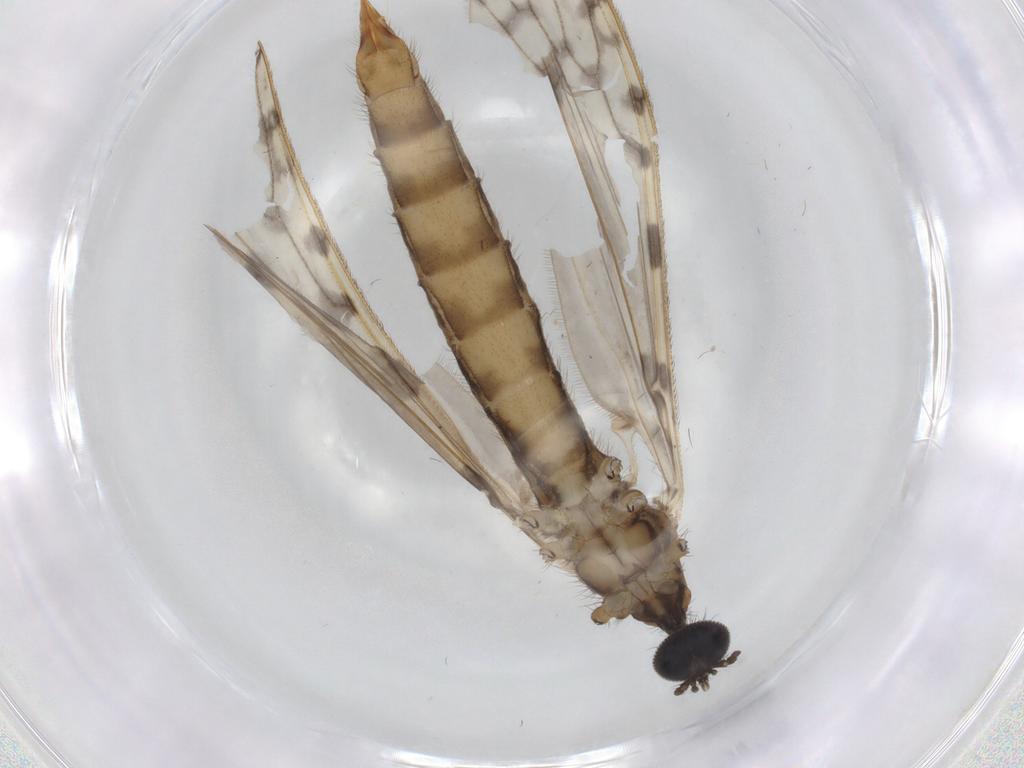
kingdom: Animalia
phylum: Arthropoda
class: Insecta
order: Diptera
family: Limoniidae
